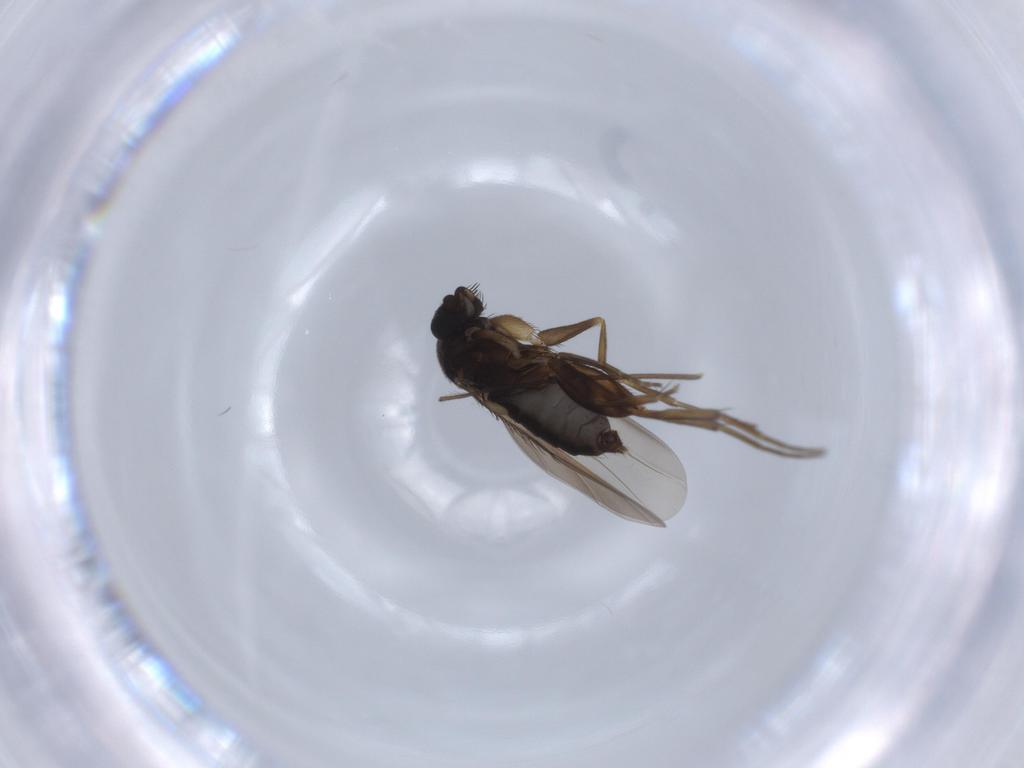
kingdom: Animalia
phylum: Arthropoda
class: Insecta
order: Diptera
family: Phoridae
